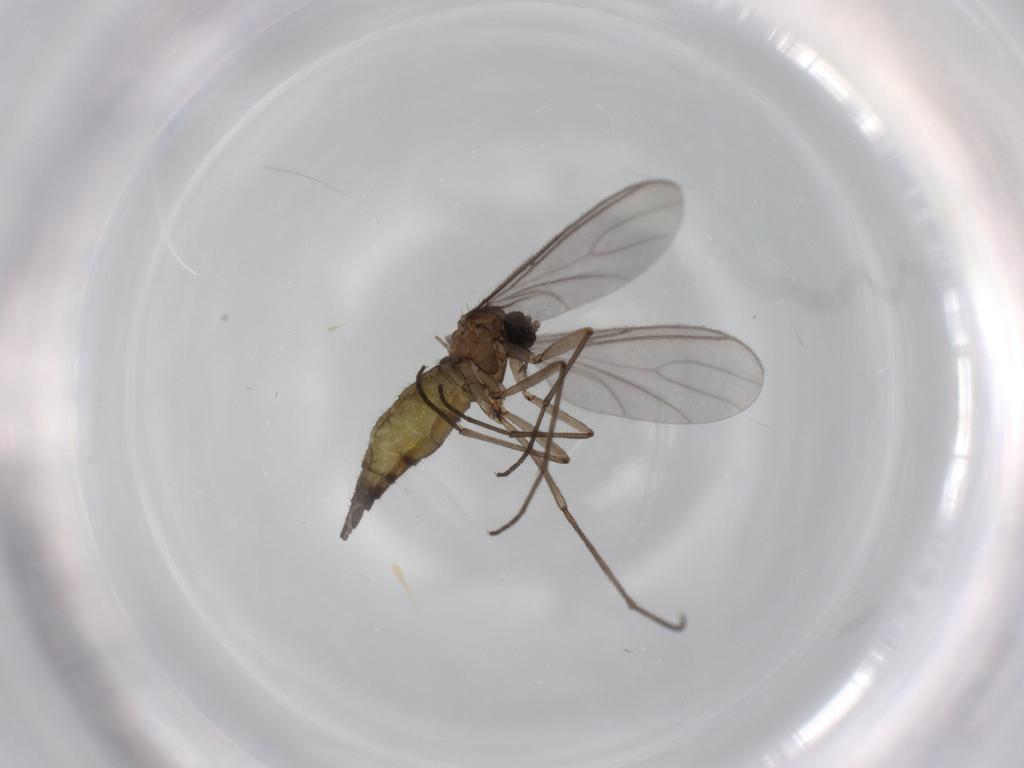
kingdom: Animalia
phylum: Arthropoda
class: Insecta
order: Diptera
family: Sciaridae
